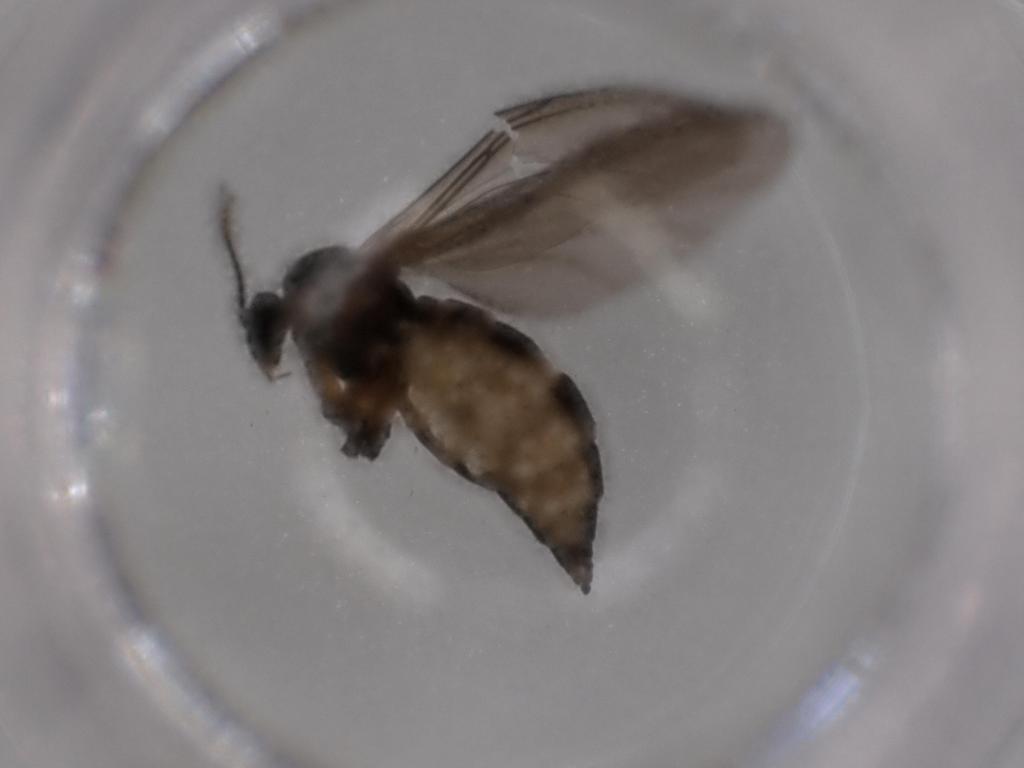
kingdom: Animalia
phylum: Arthropoda
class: Insecta
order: Diptera
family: Sciaridae
